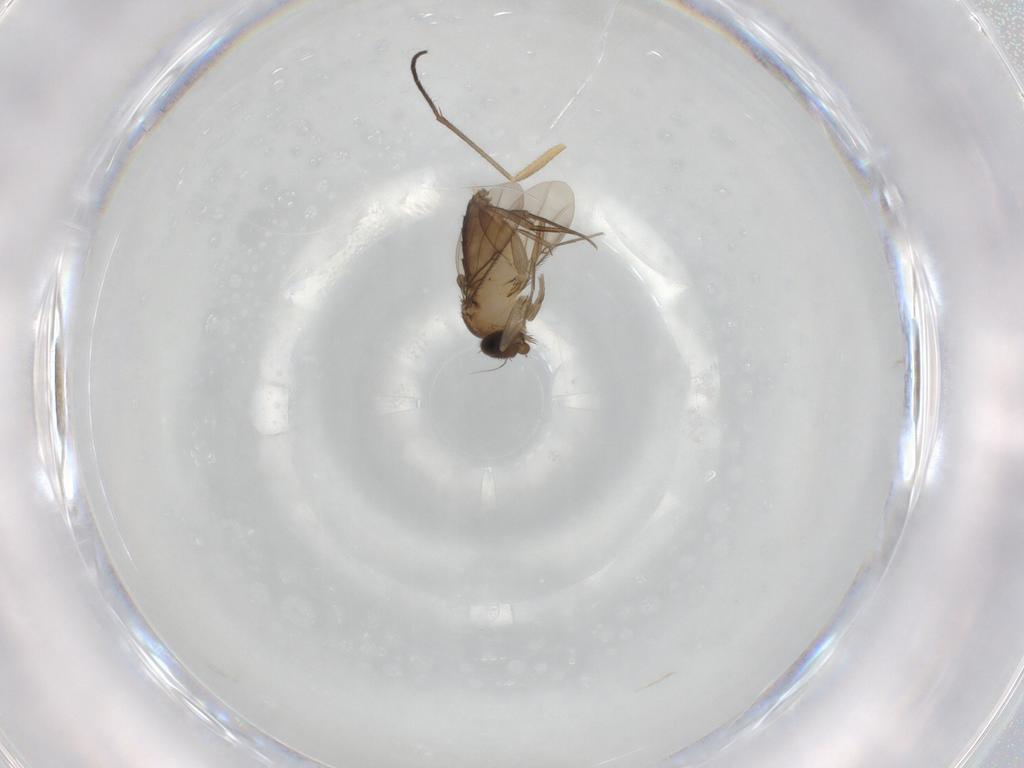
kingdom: Animalia
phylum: Arthropoda
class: Insecta
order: Diptera
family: Phoridae
